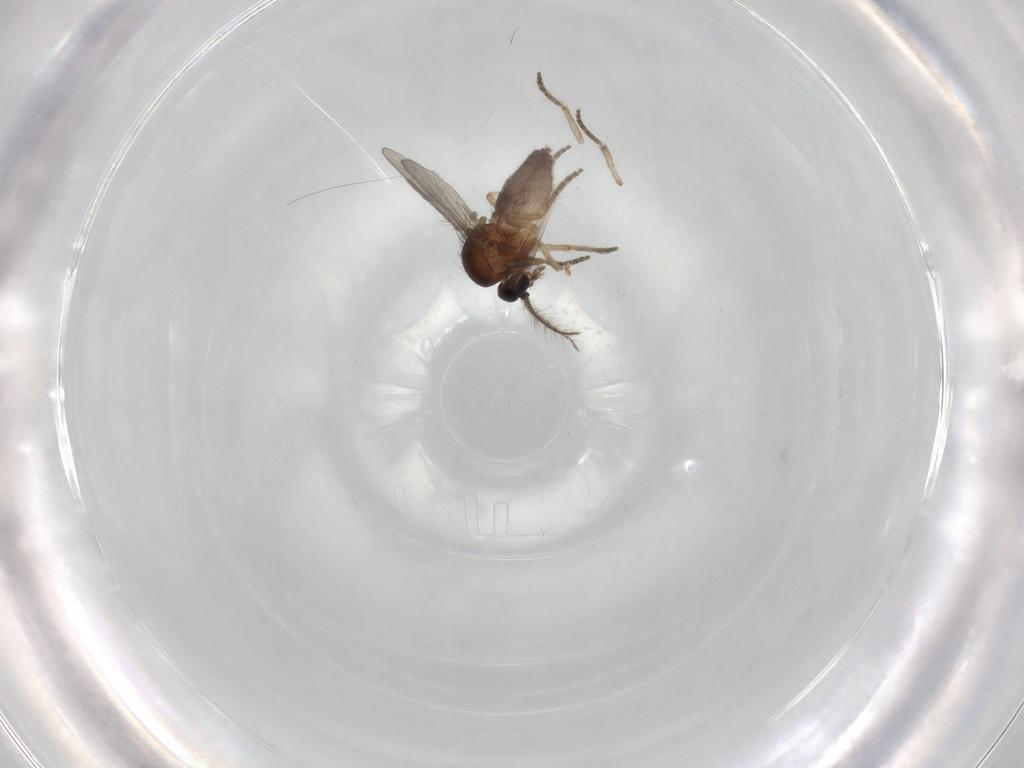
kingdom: Animalia
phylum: Arthropoda
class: Insecta
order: Diptera
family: Ceratopogonidae
